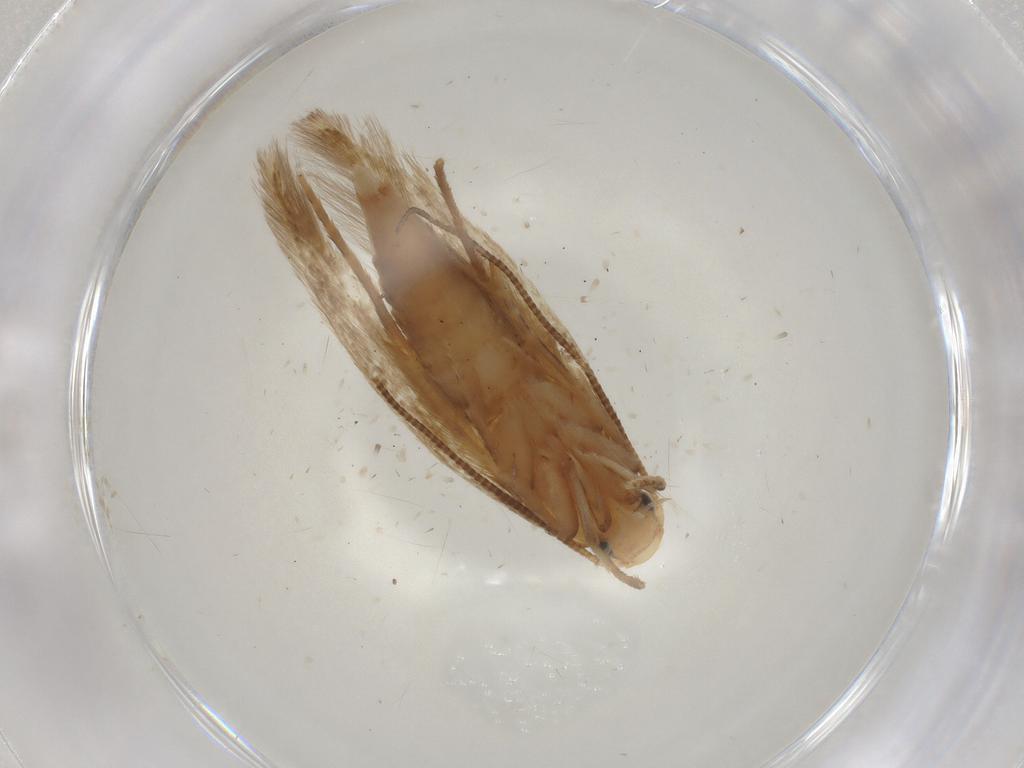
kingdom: Animalia
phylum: Arthropoda
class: Insecta
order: Lepidoptera
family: Tineidae
